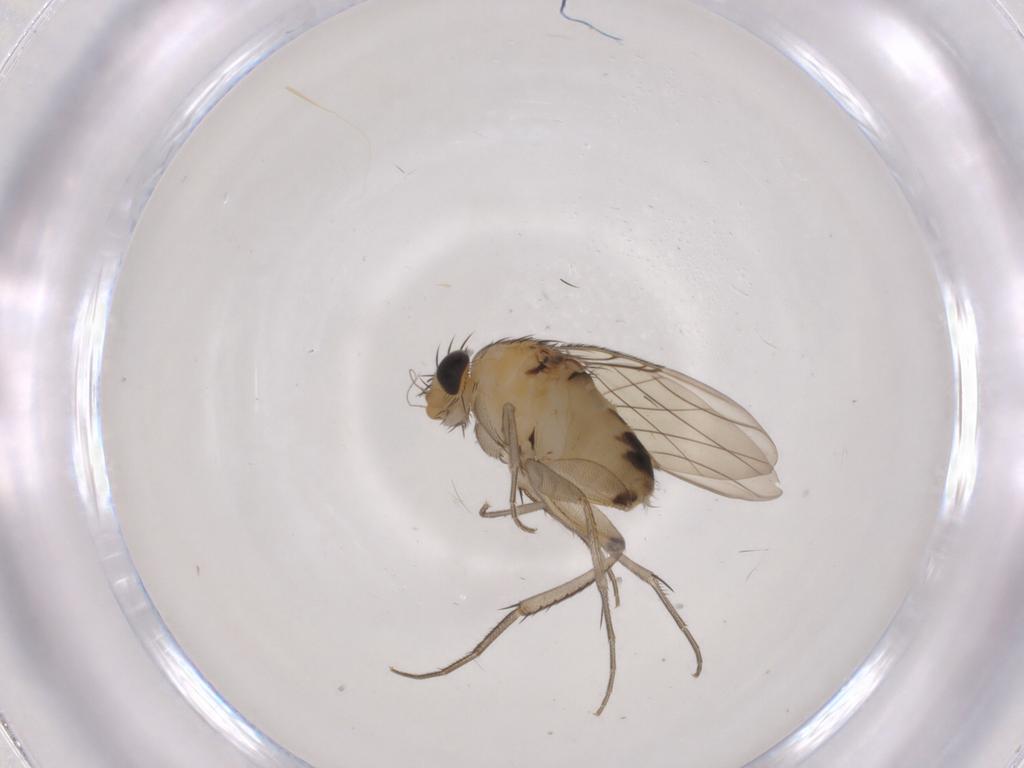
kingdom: Animalia
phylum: Arthropoda
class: Insecta
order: Diptera
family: Phoridae
